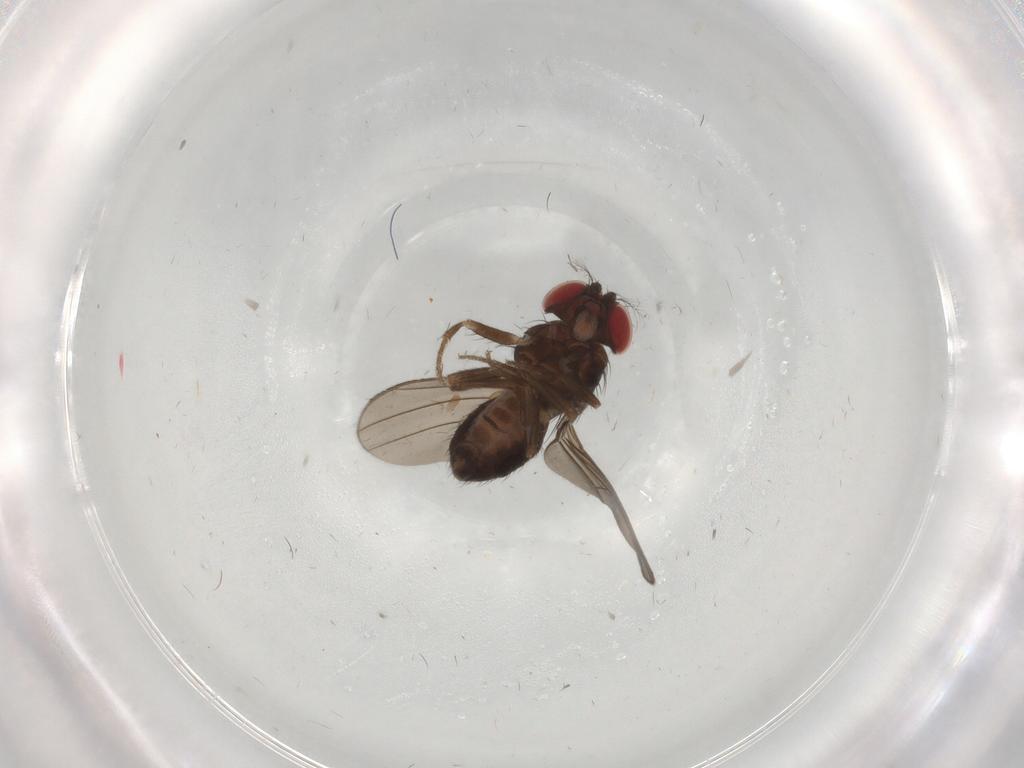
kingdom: Animalia
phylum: Arthropoda
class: Insecta
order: Diptera
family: Drosophilidae
